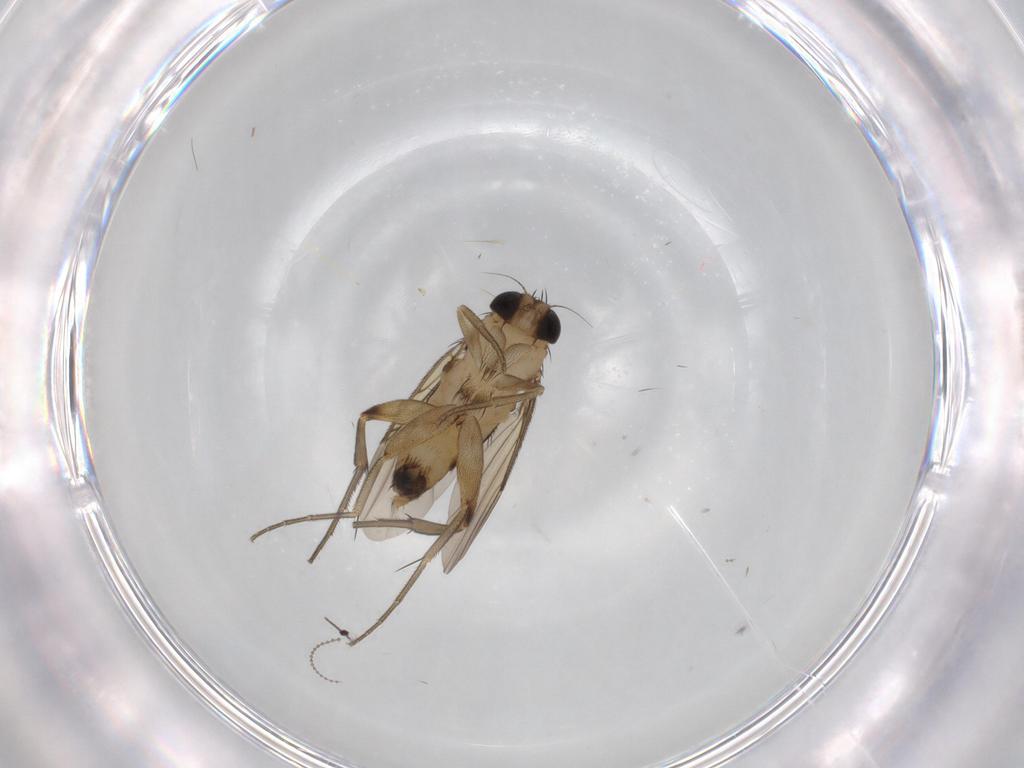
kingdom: Animalia
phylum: Arthropoda
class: Insecta
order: Diptera
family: Phoridae
